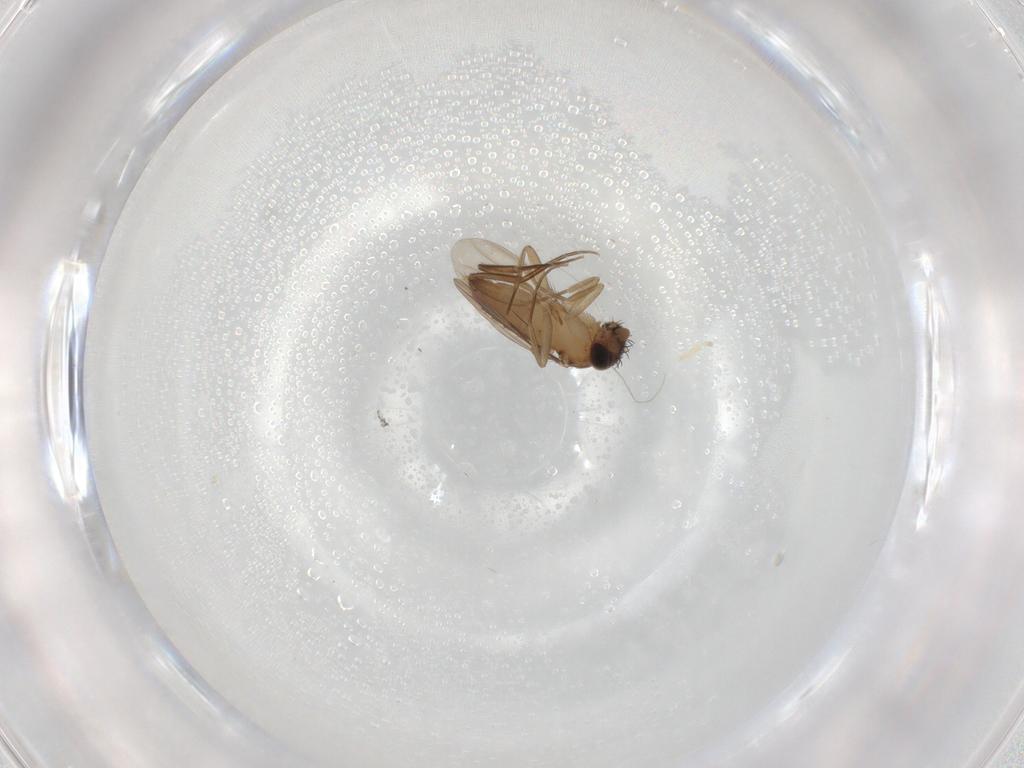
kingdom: Animalia
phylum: Arthropoda
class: Insecta
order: Diptera
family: Phoridae
